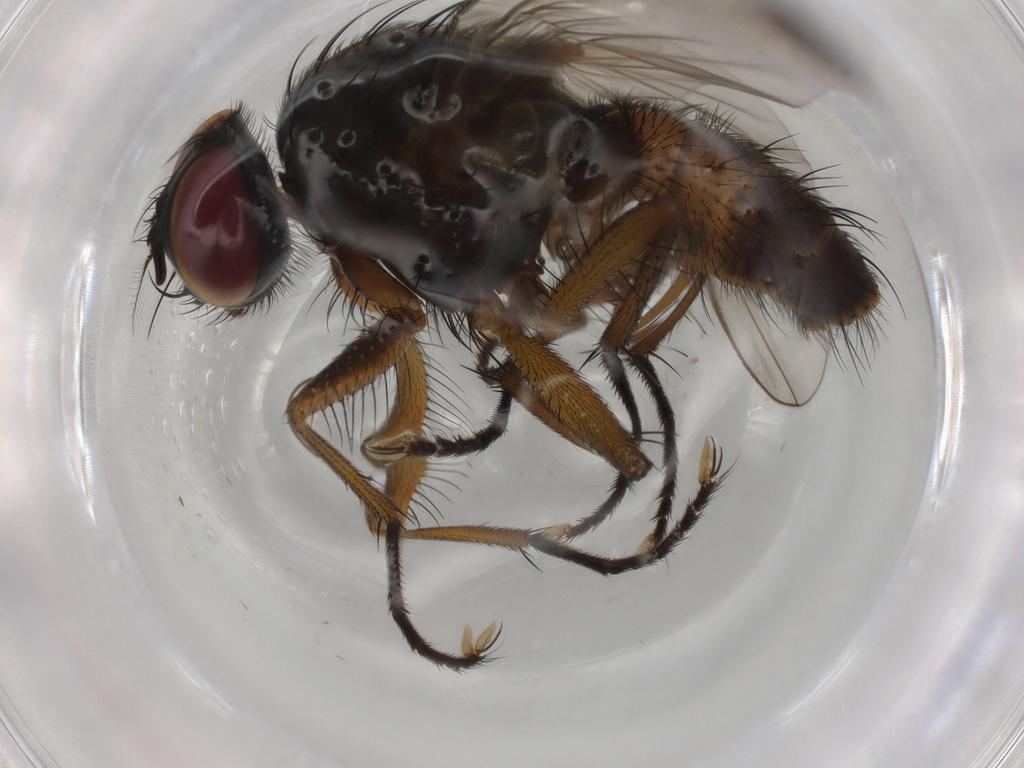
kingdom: Animalia
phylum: Arthropoda
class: Insecta
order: Diptera
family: Muscidae
